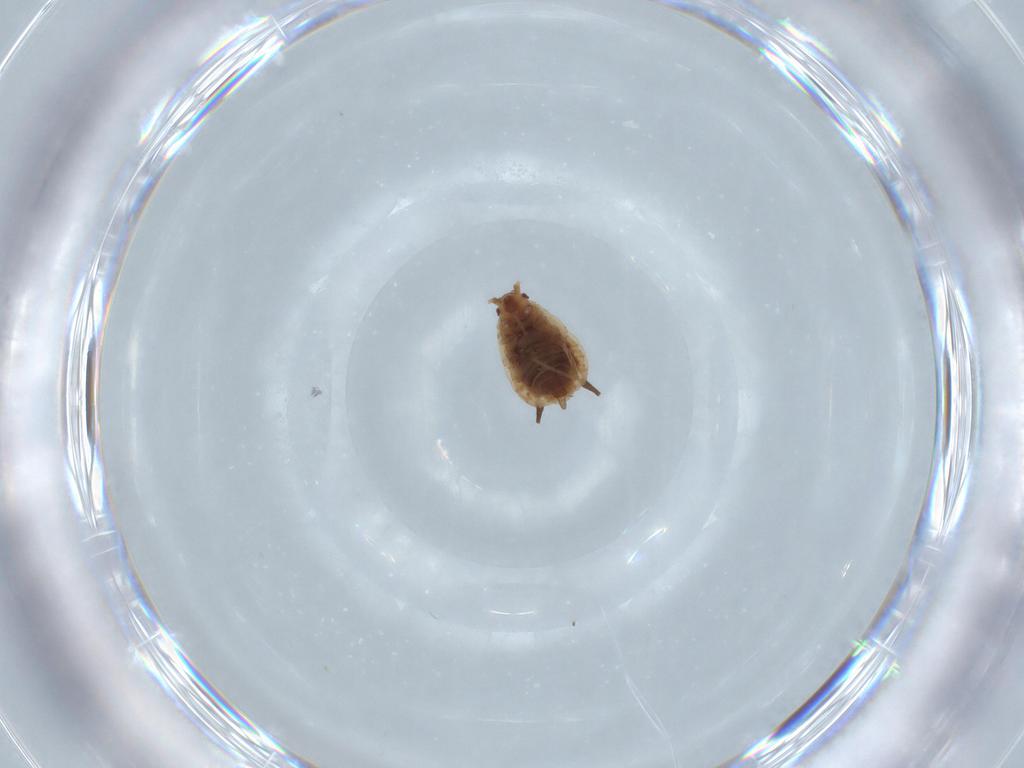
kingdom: Animalia
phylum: Arthropoda
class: Insecta
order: Hemiptera
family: Aphididae
